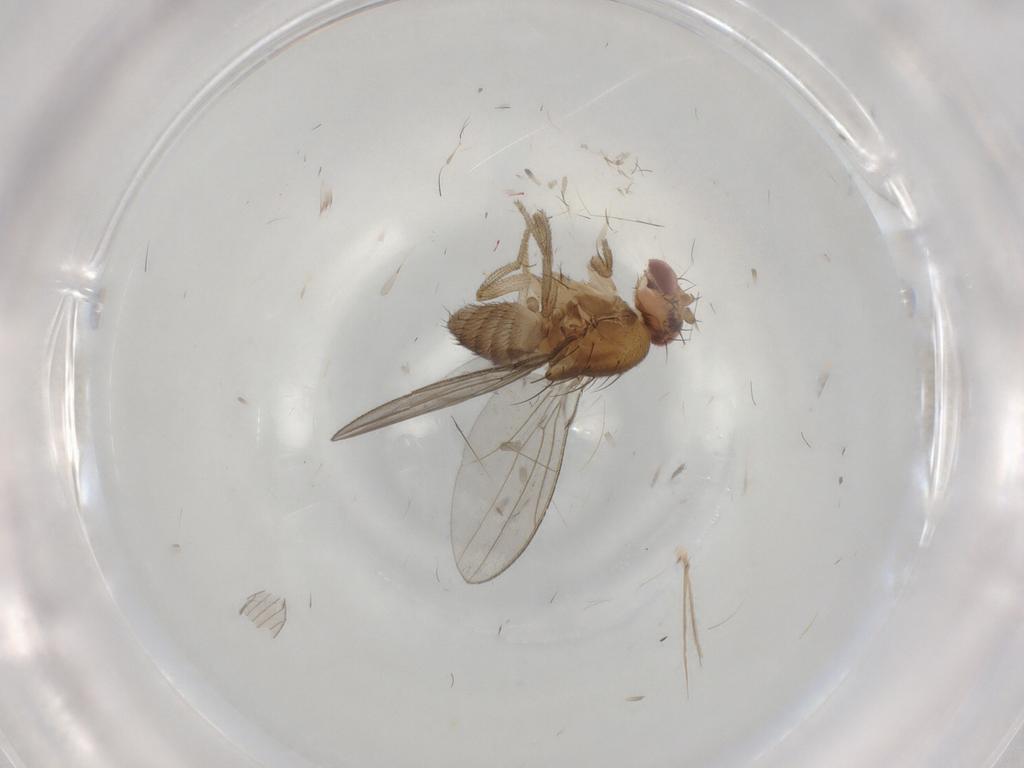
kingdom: Animalia
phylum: Arthropoda
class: Insecta
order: Diptera
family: Drosophilidae
